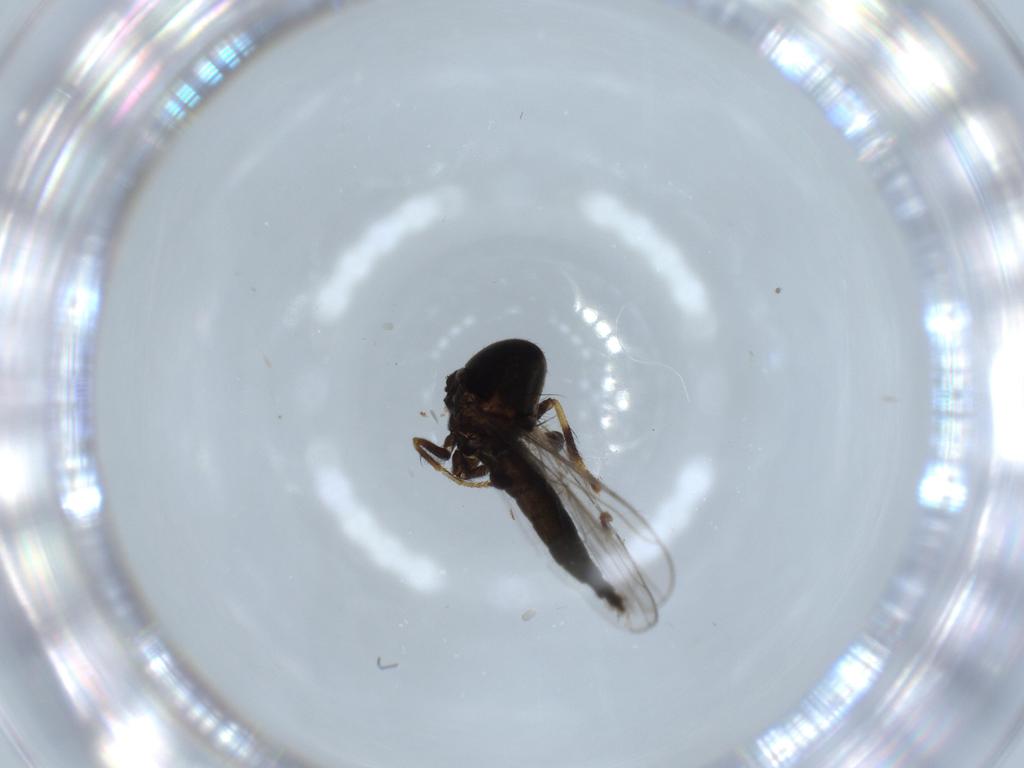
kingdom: Animalia
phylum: Arthropoda
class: Insecta
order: Diptera
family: Hybotidae
